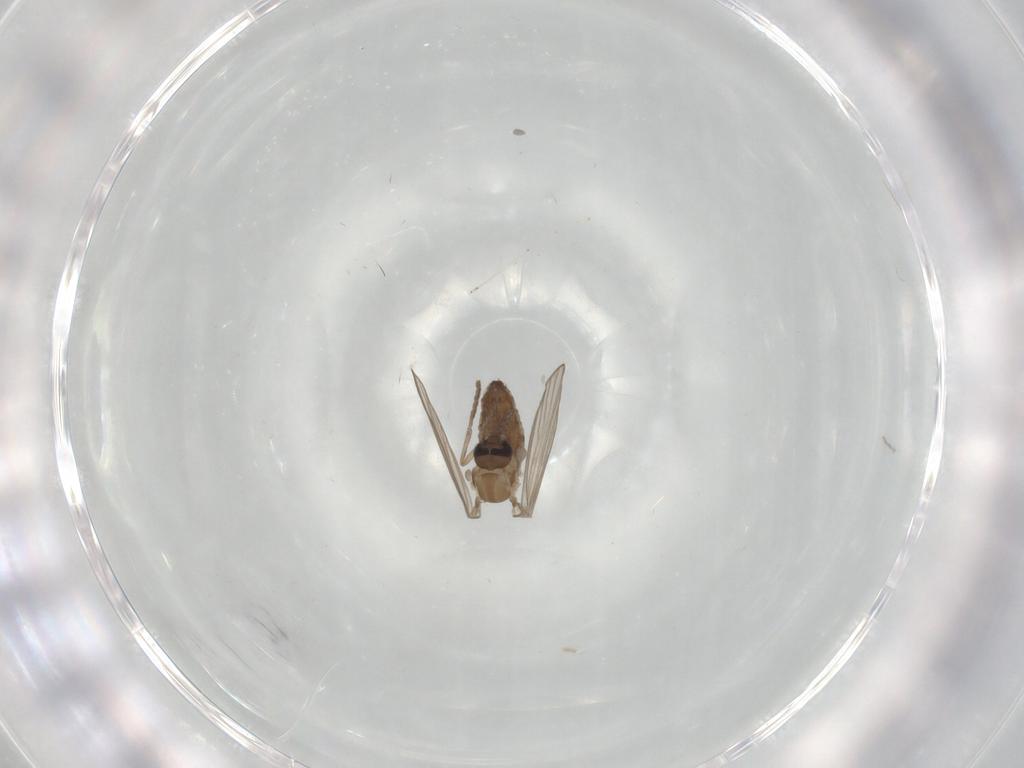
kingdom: Animalia
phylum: Arthropoda
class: Insecta
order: Diptera
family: Psychodidae
